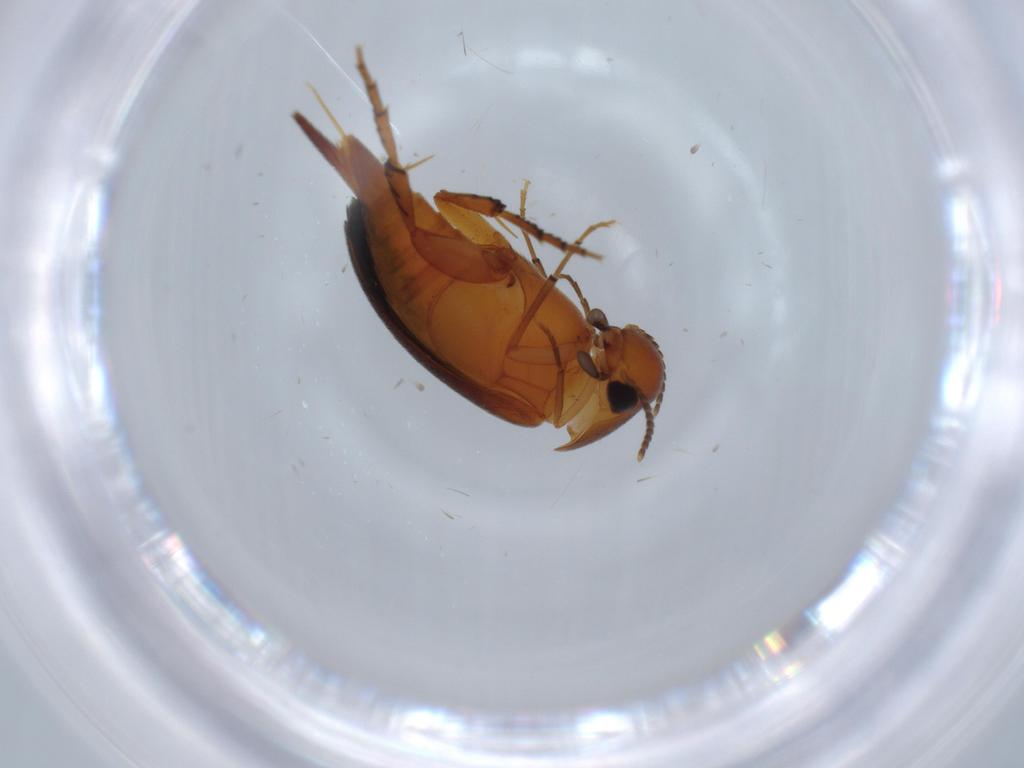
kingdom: Animalia
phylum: Arthropoda
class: Insecta
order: Coleoptera
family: Mordellidae
